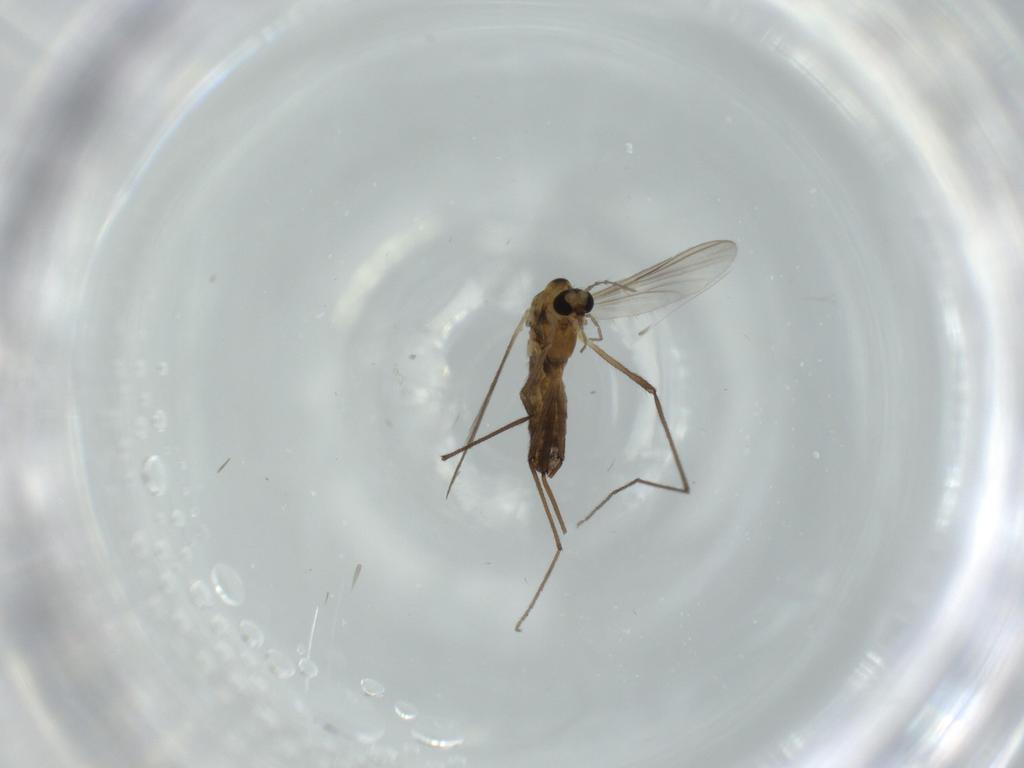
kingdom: Animalia
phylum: Arthropoda
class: Insecta
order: Diptera
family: Chironomidae
